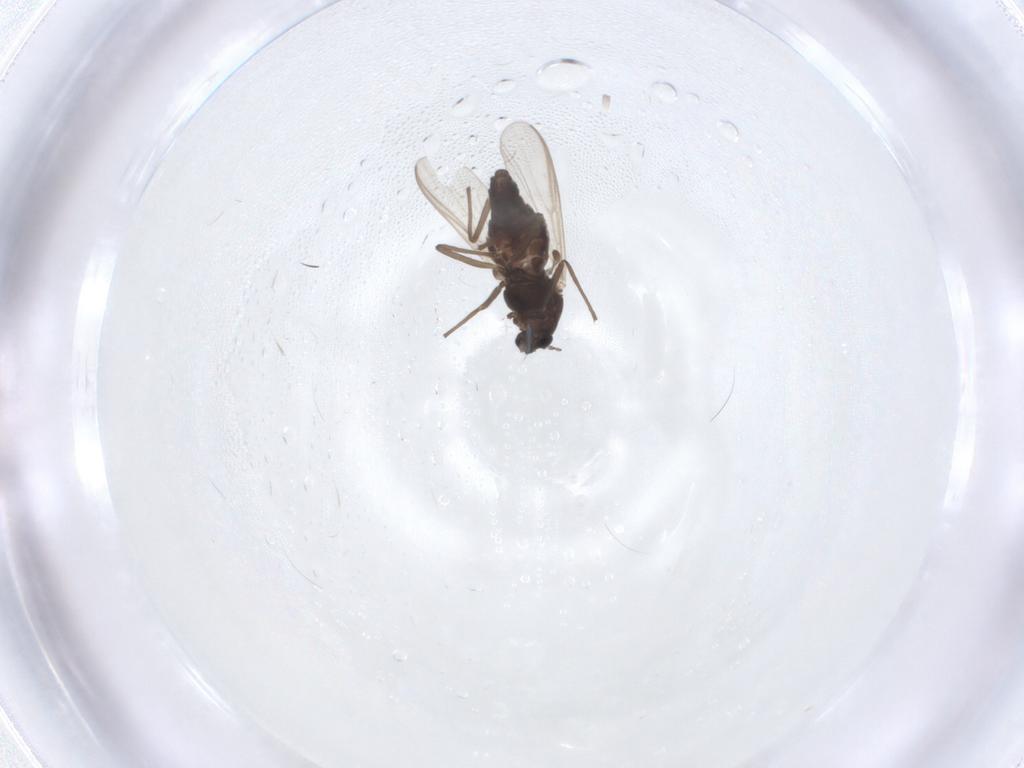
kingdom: Animalia
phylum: Arthropoda
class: Insecta
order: Diptera
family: Chironomidae
